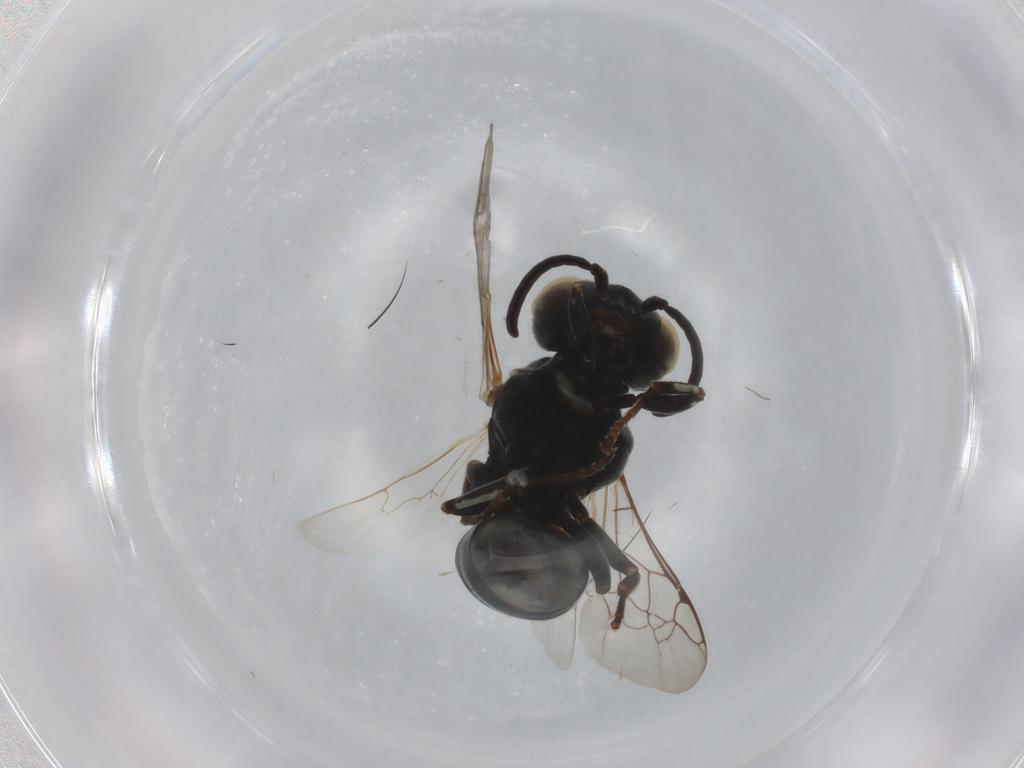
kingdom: Animalia
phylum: Arthropoda
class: Insecta
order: Hymenoptera
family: Crabronidae
